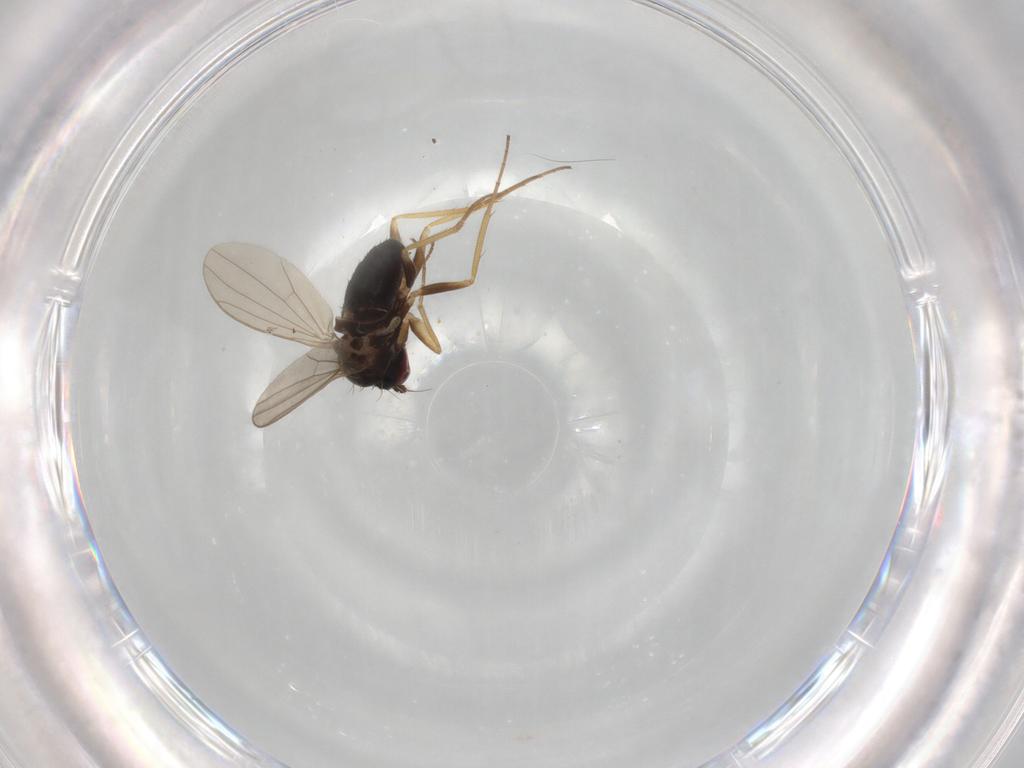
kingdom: Animalia
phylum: Arthropoda
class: Insecta
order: Diptera
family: Dolichopodidae
